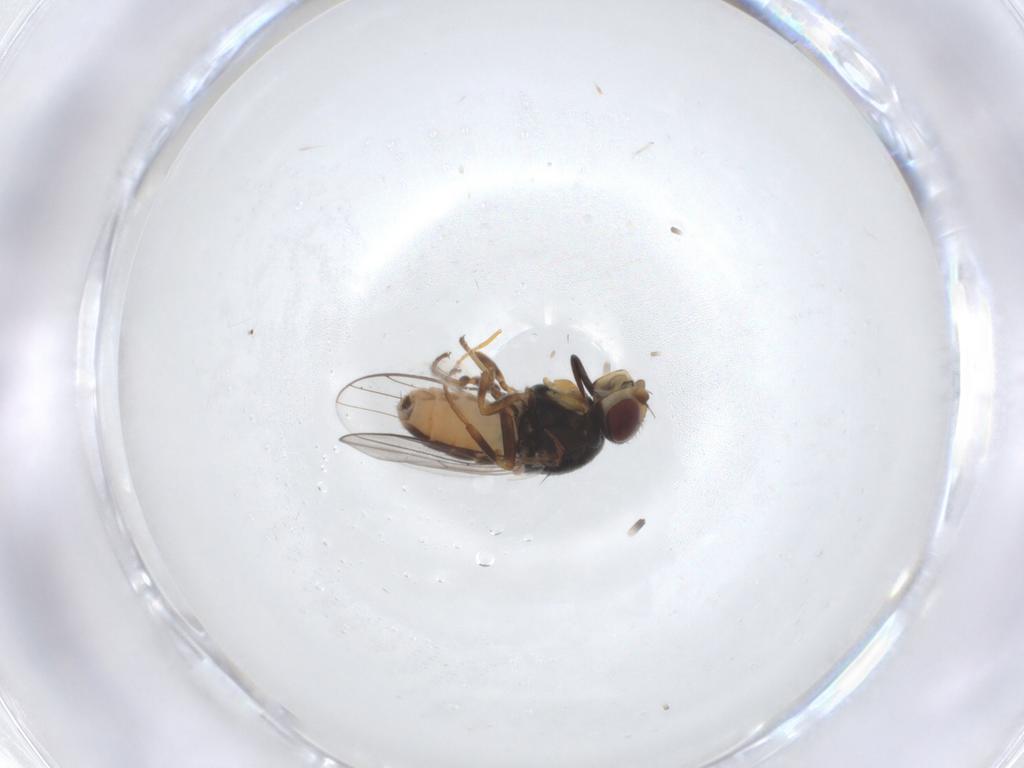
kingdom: Animalia
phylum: Arthropoda
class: Insecta
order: Diptera
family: Chloropidae
